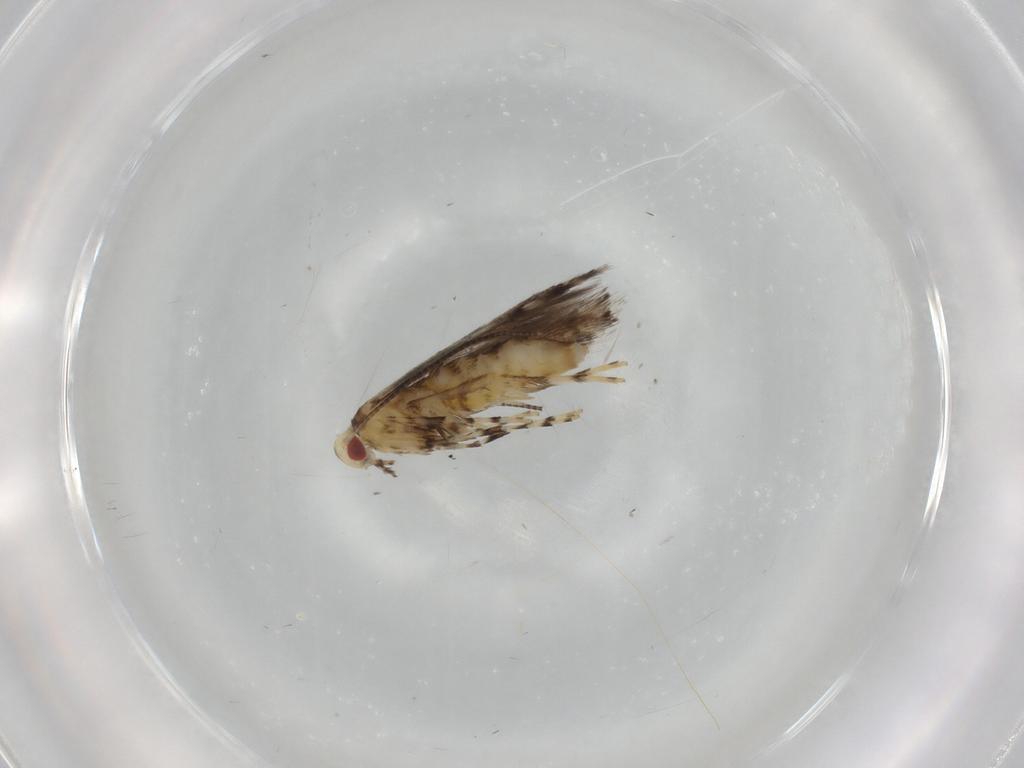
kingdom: Animalia
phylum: Arthropoda
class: Insecta
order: Lepidoptera
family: Gracillariidae
